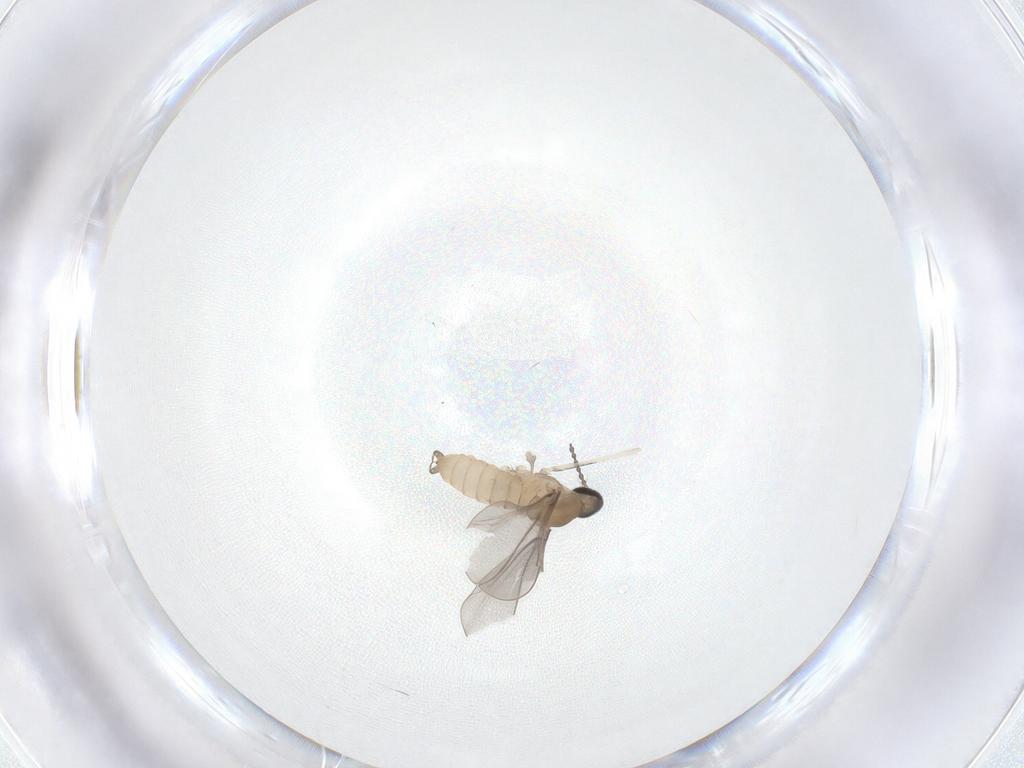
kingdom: Animalia
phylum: Arthropoda
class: Insecta
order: Diptera
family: Cecidomyiidae
